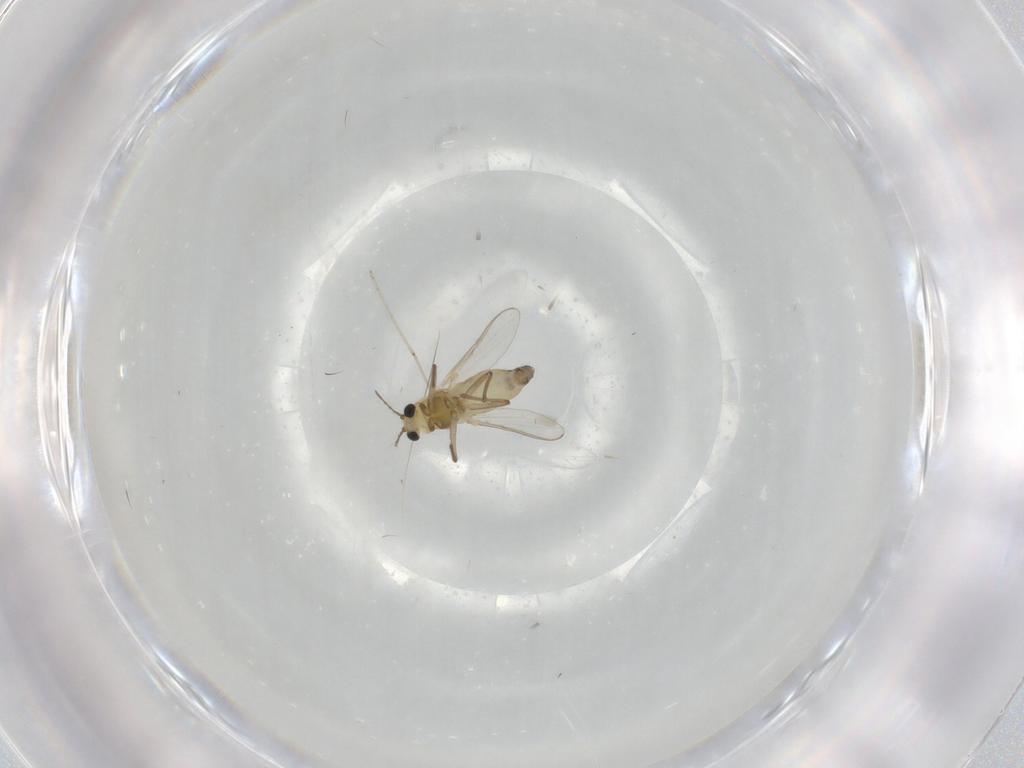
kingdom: Animalia
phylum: Arthropoda
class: Insecta
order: Diptera
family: Chironomidae
